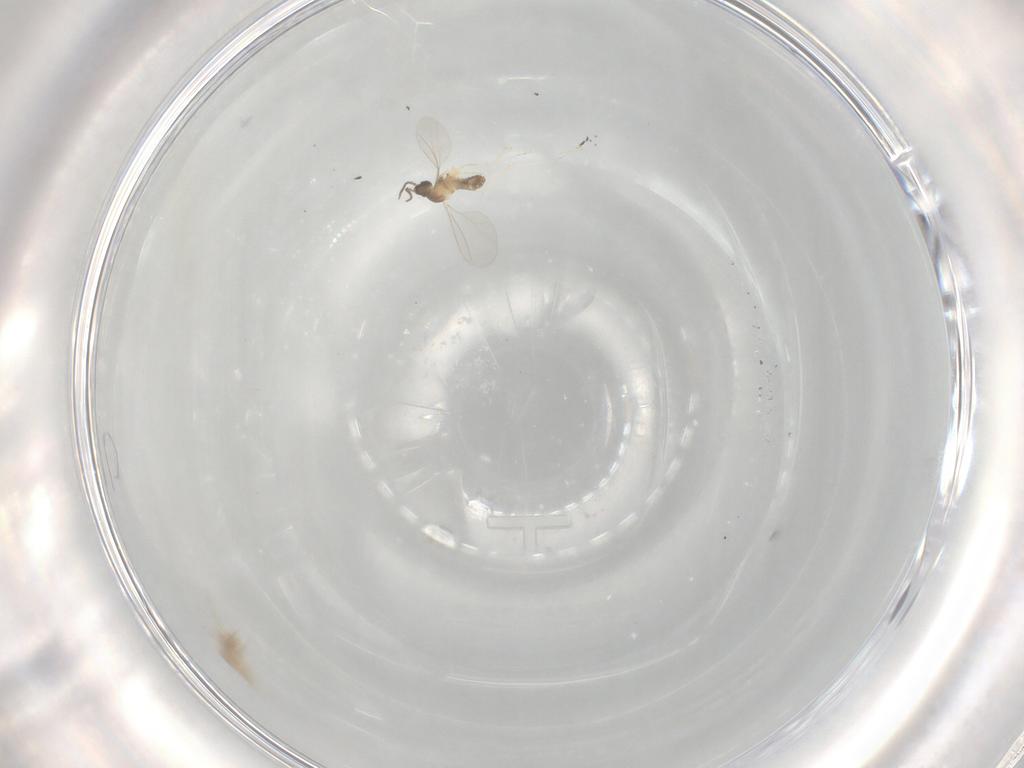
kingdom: Animalia
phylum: Arthropoda
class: Insecta
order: Diptera
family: Cecidomyiidae
